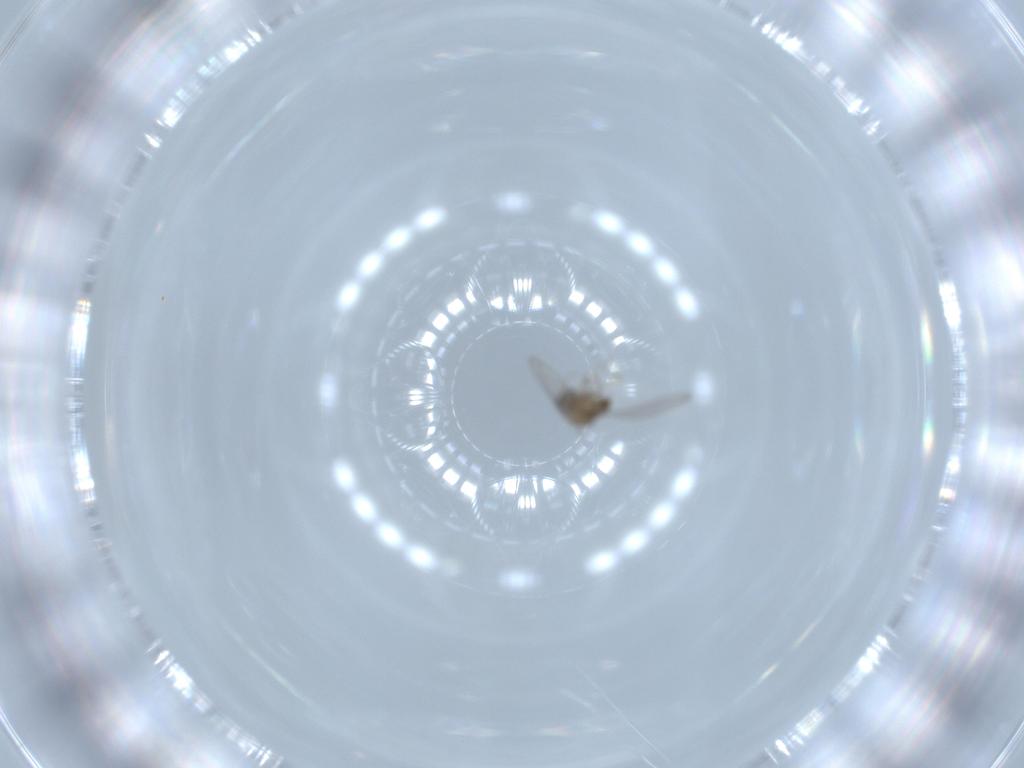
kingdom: Animalia
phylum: Arthropoda
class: Insecta
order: Diptera
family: Cecidomyiidae
